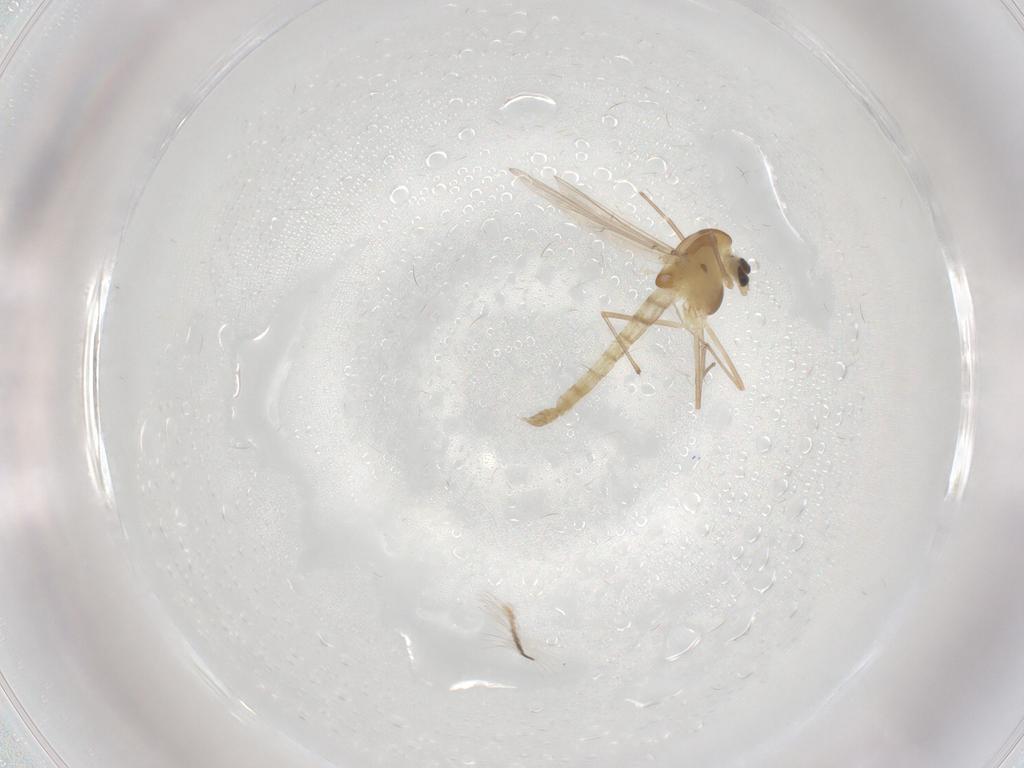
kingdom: Animalia
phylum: Arthropoda
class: Insecta
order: Diptera
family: Chironomidae
